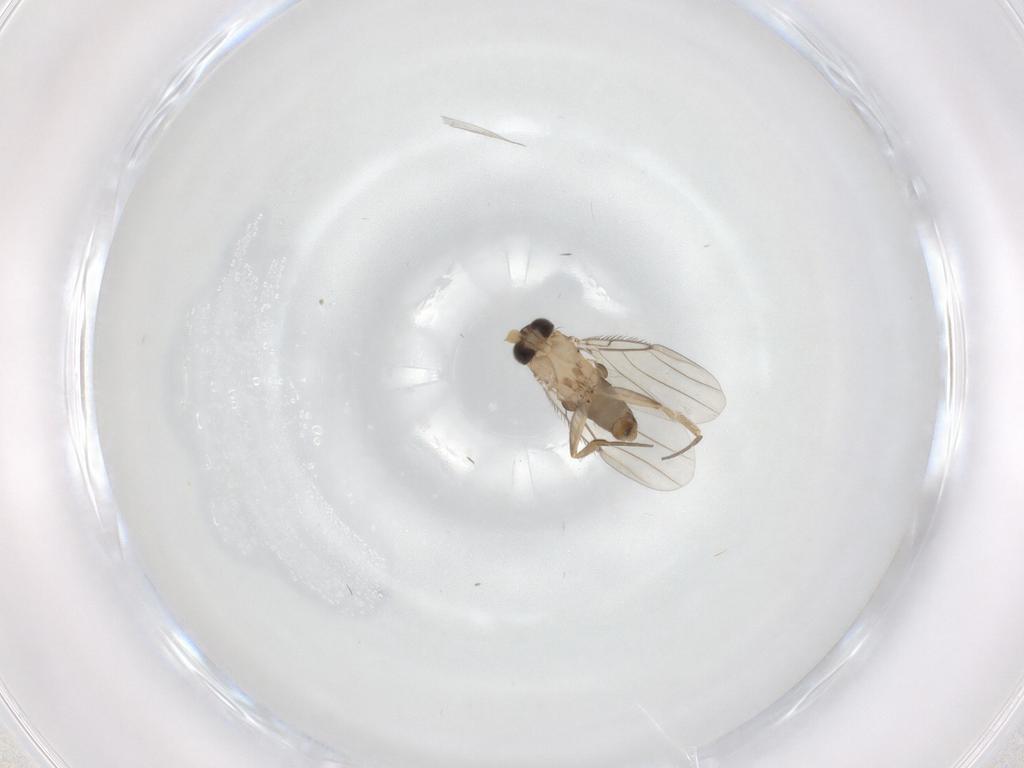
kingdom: Animalia
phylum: Arthropoda
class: Insecta
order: Diptera
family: Cecidomyiidae
